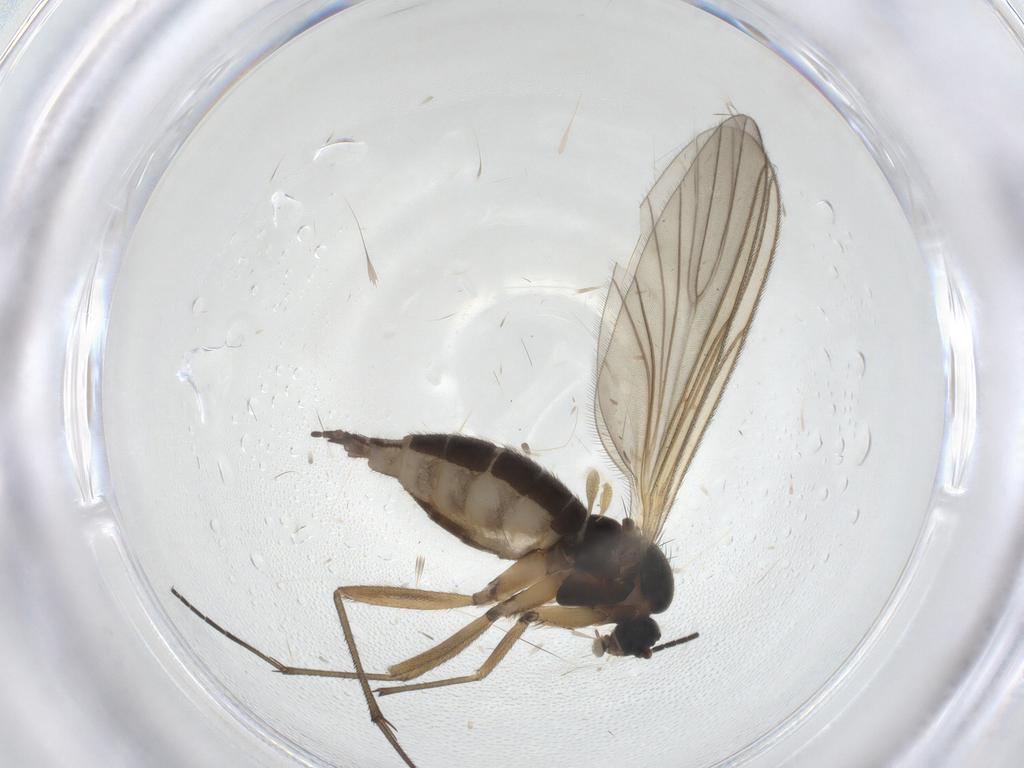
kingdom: Animalia
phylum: Arthropoda
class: Insecta
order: Diptera
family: Sciaridae
